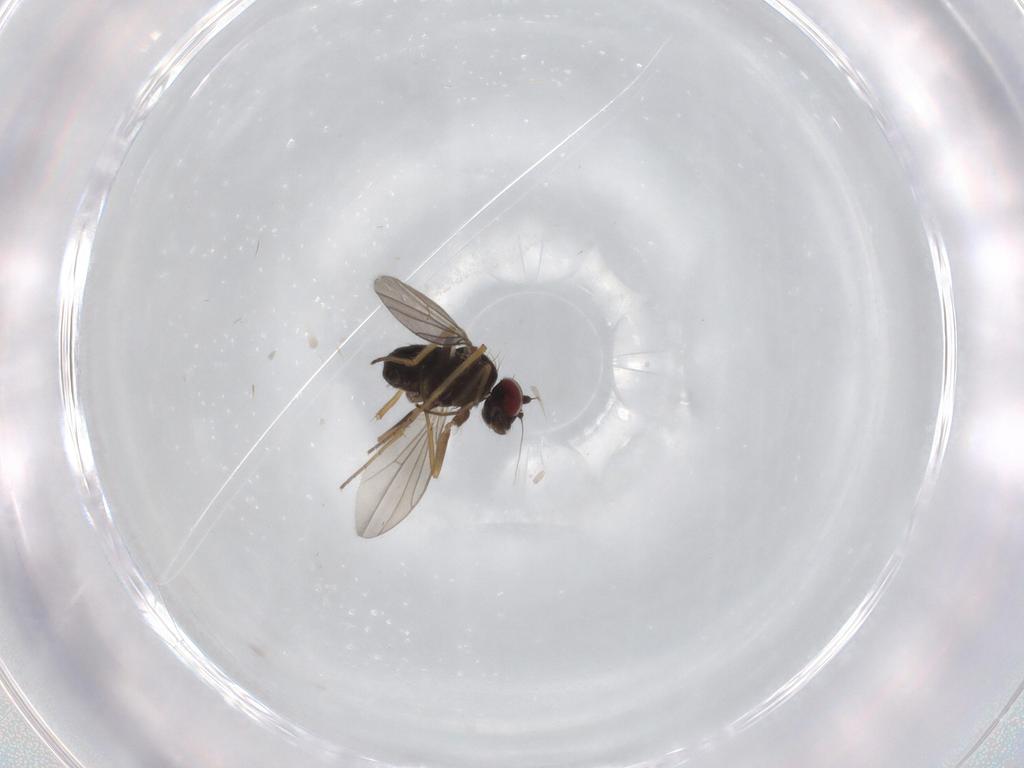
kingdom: Animalia
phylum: Arthropoda
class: Insecta
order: Diptera
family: Dolichopodidae
